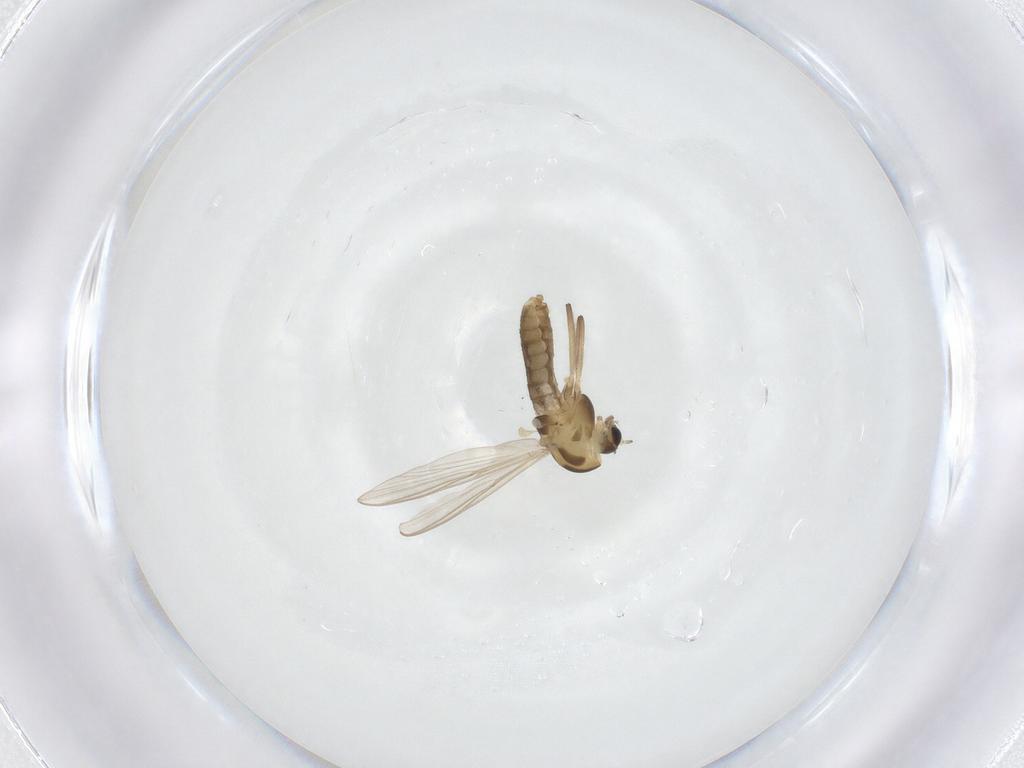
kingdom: Animalia
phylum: Arthropoda
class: Insecta
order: Diptera
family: Chironomidae
